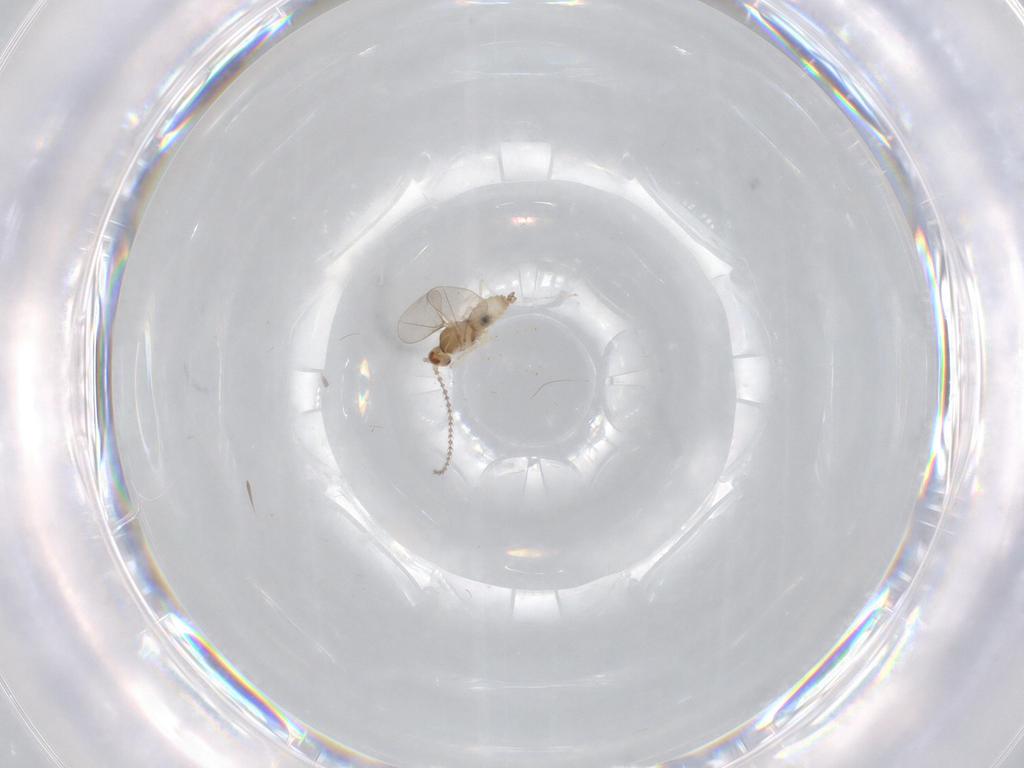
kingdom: Animalia
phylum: Arthropoda
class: Insecta
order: Diptera
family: Cecidomyiidae
